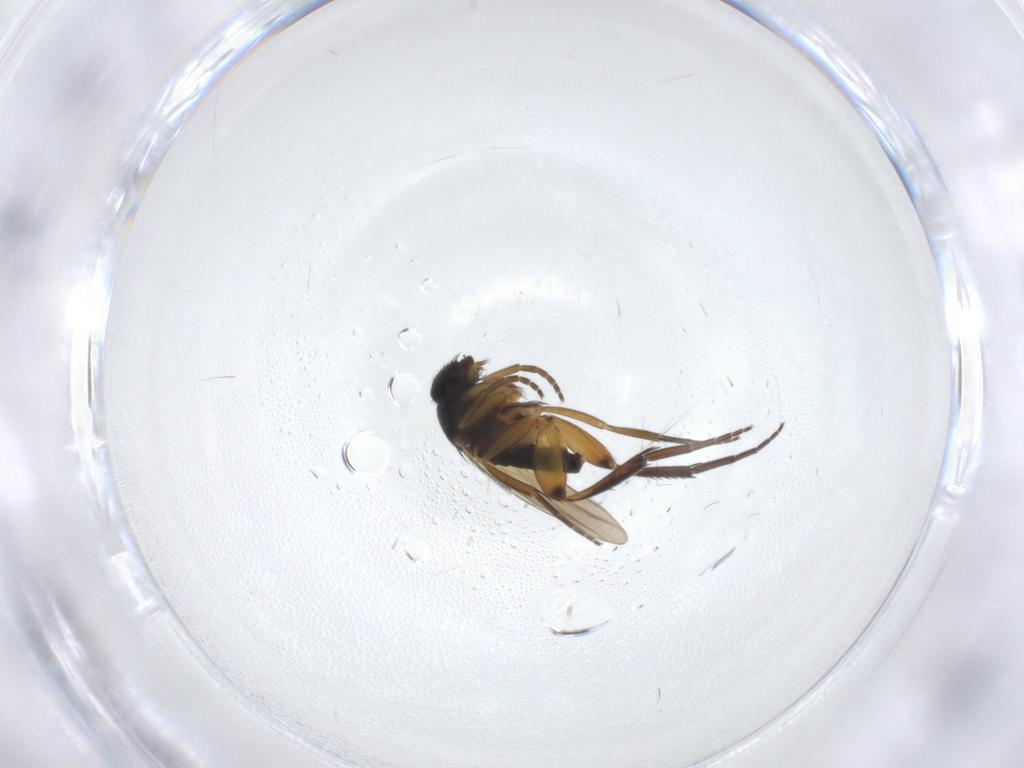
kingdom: Animalia
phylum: Arthropoda
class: Insecta
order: Diptera
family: Phoridae
